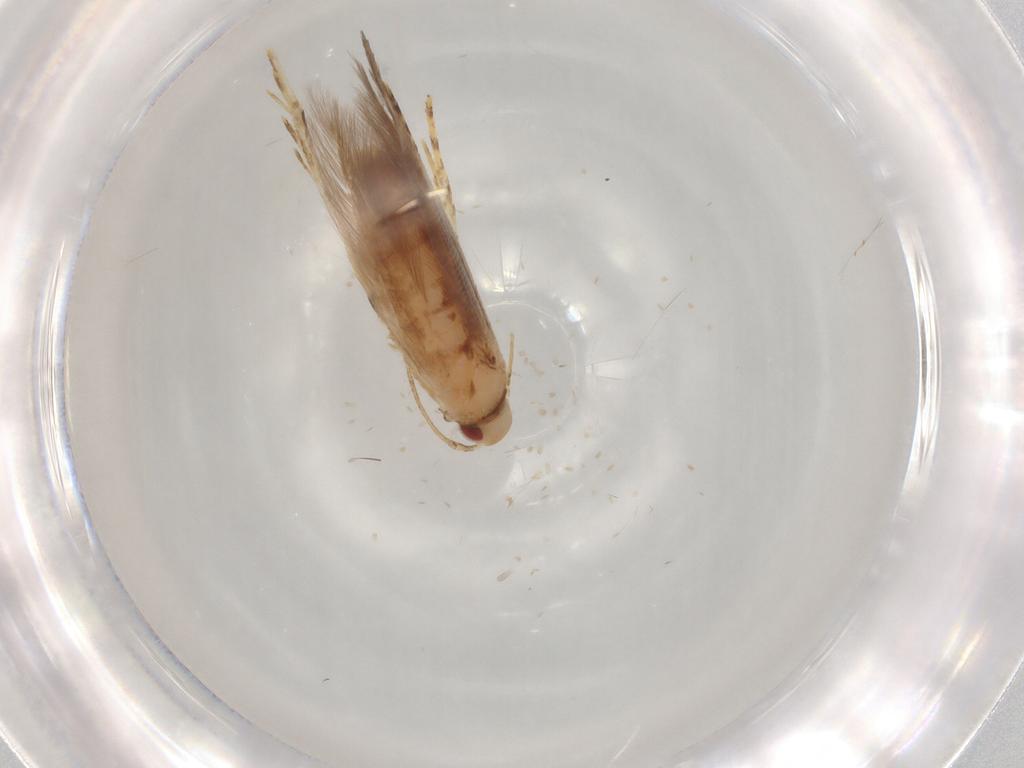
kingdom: Animalia
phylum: Arthropoda
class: Insecta
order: Lepidoptera
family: Cosmopterigidae
